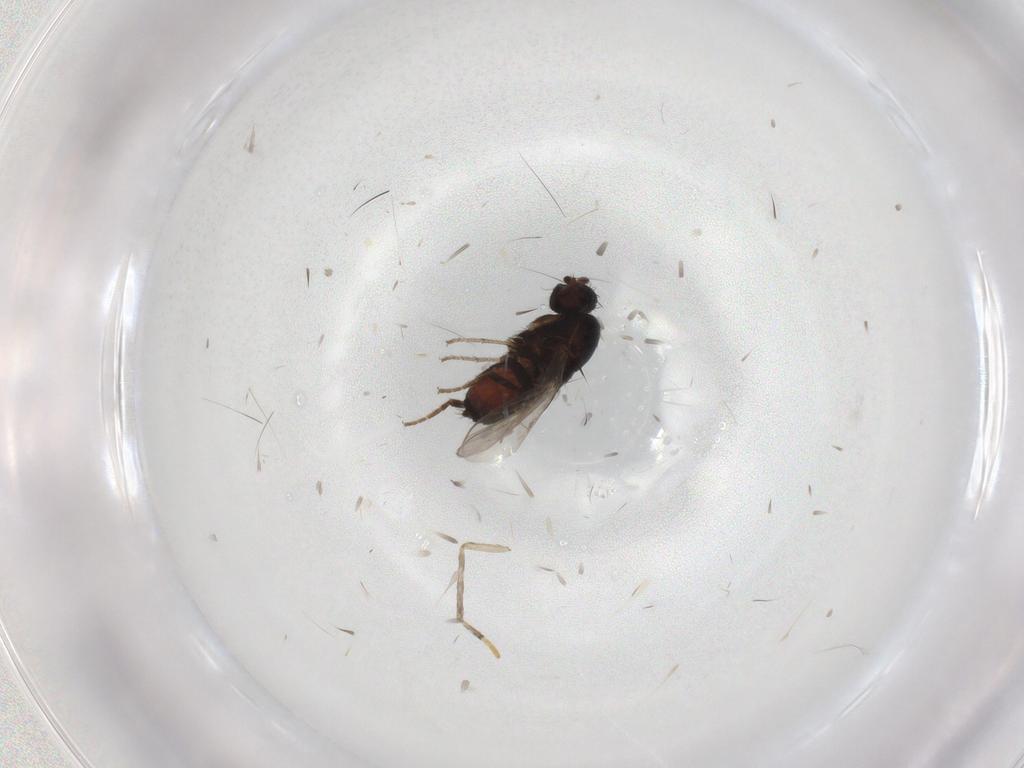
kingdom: Animalia
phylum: Arthropoda
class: Insecta
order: Diptera
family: Sphaeroceridae
